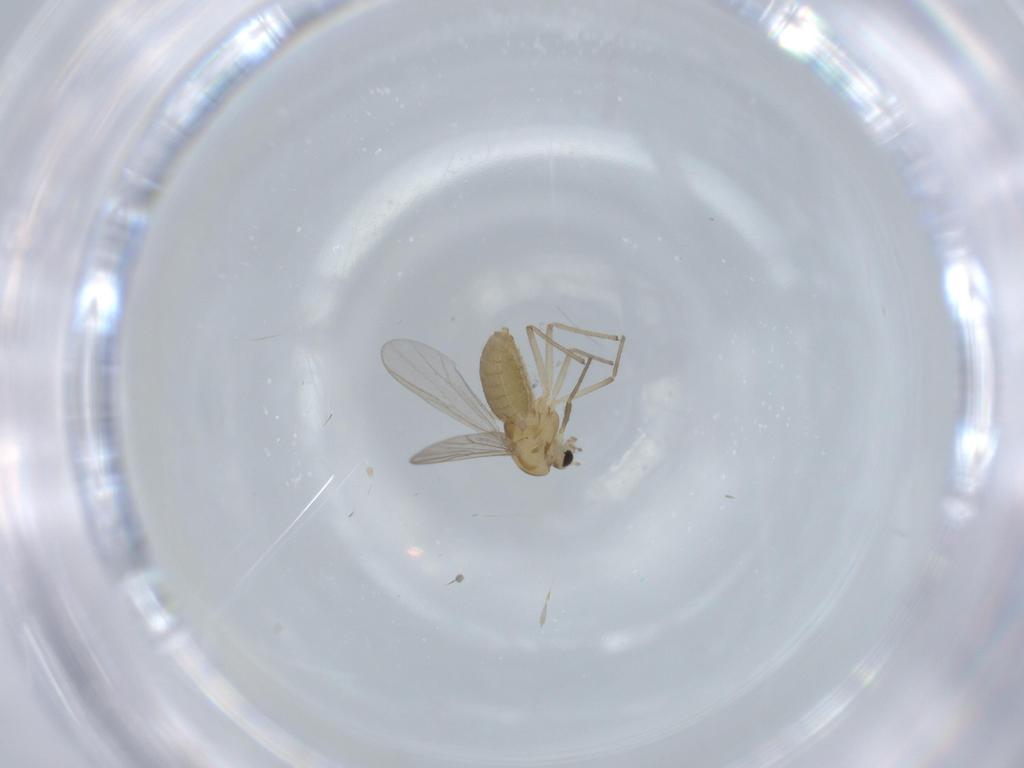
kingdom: Animalia
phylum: Arthropoda
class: Insecta
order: Diptera
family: Chironomidae
